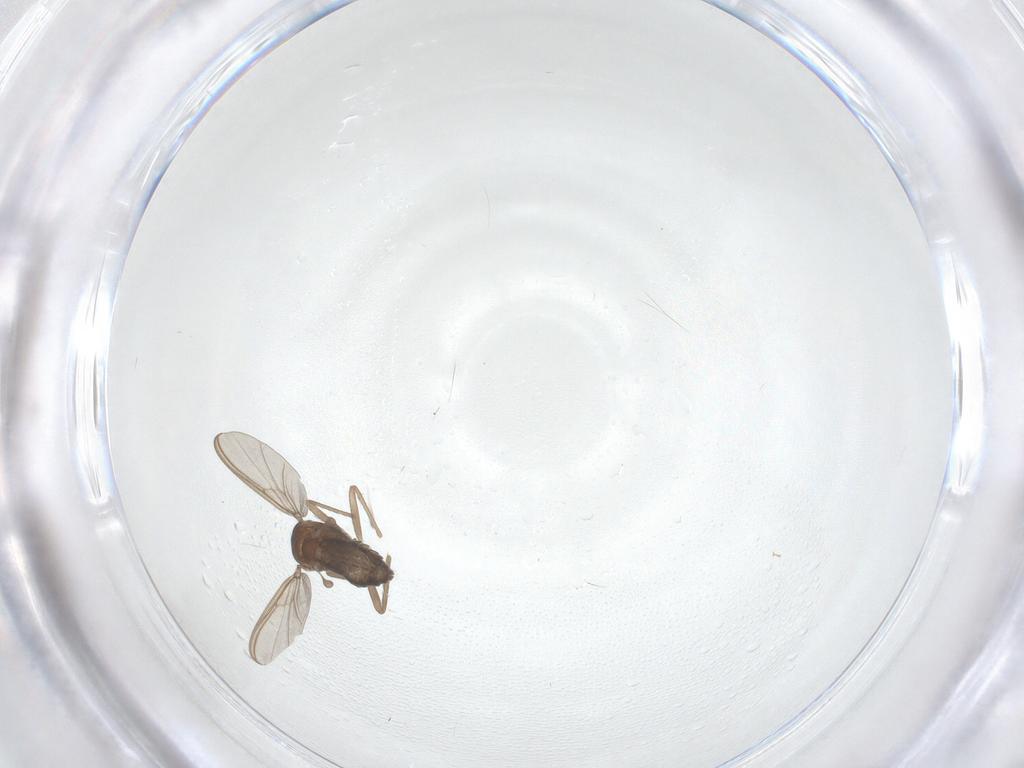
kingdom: Animalia
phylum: Arthropoda
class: Insecta
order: Diptera
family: Chironomidae
